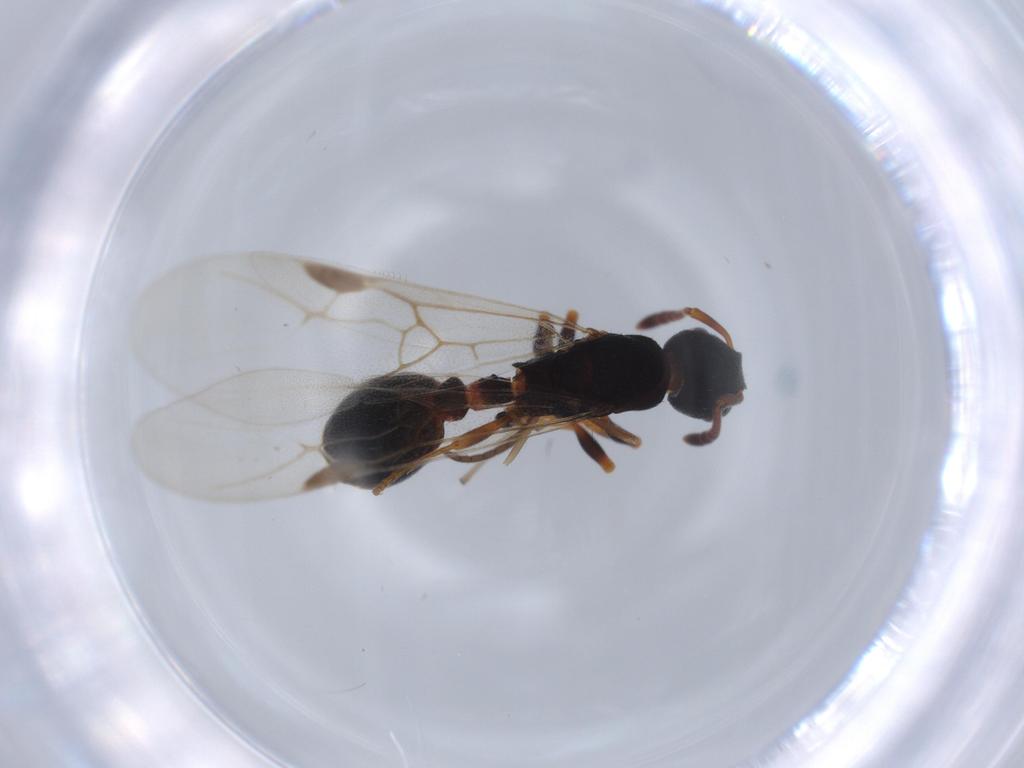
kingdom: Animalia
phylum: Arthropoda
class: Insecta
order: Hymenoptera
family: Formicidae
